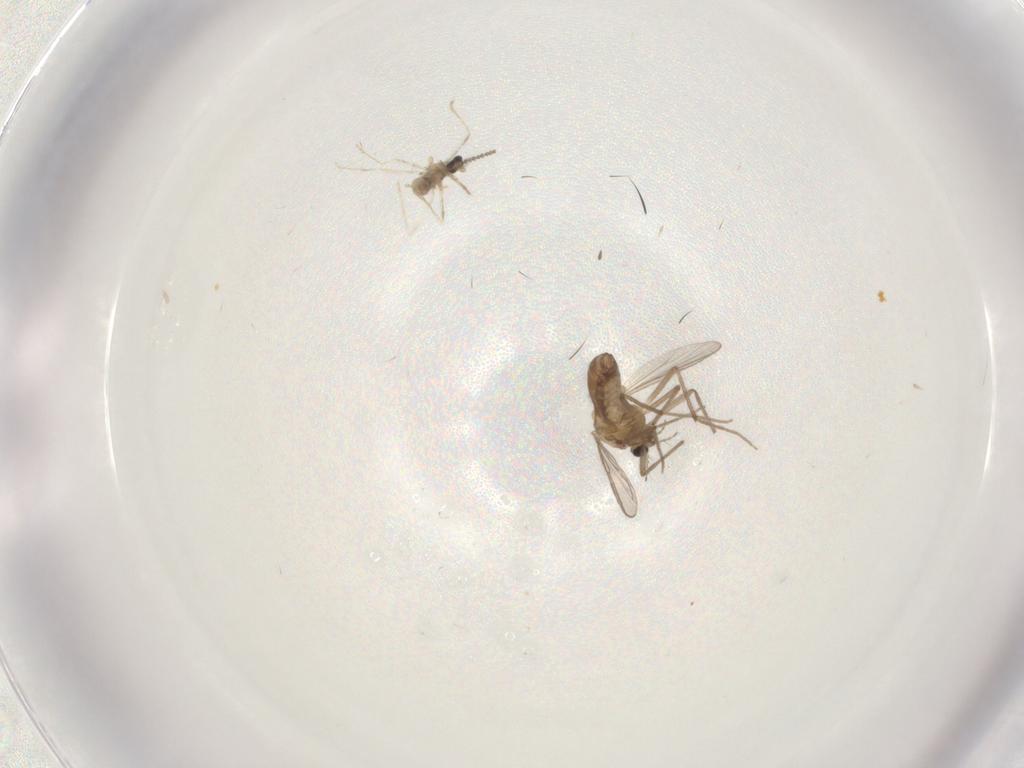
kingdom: Animalia
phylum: Arthropoda
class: Insecta
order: Diptera
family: Cecidomyiidae
